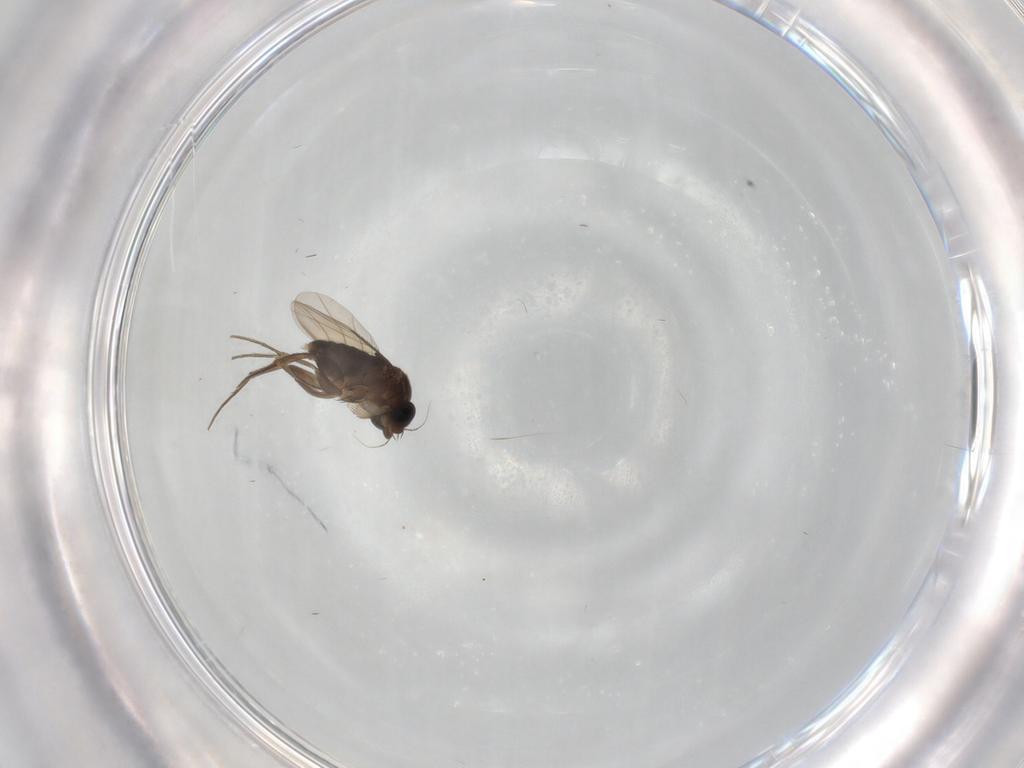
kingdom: Animalia
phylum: Arthropoda
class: Insecta
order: Diptera
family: Phoridae
